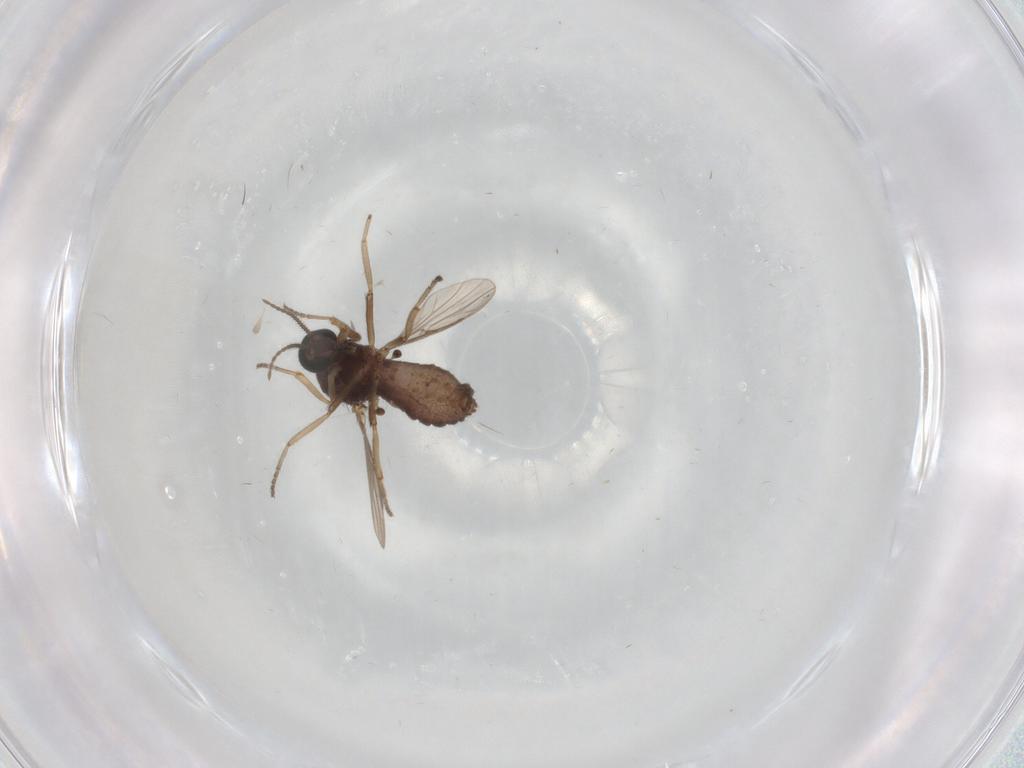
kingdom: Animalia
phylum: Arthropoda
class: Insecta
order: Diptera
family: Ceratopogonidae
